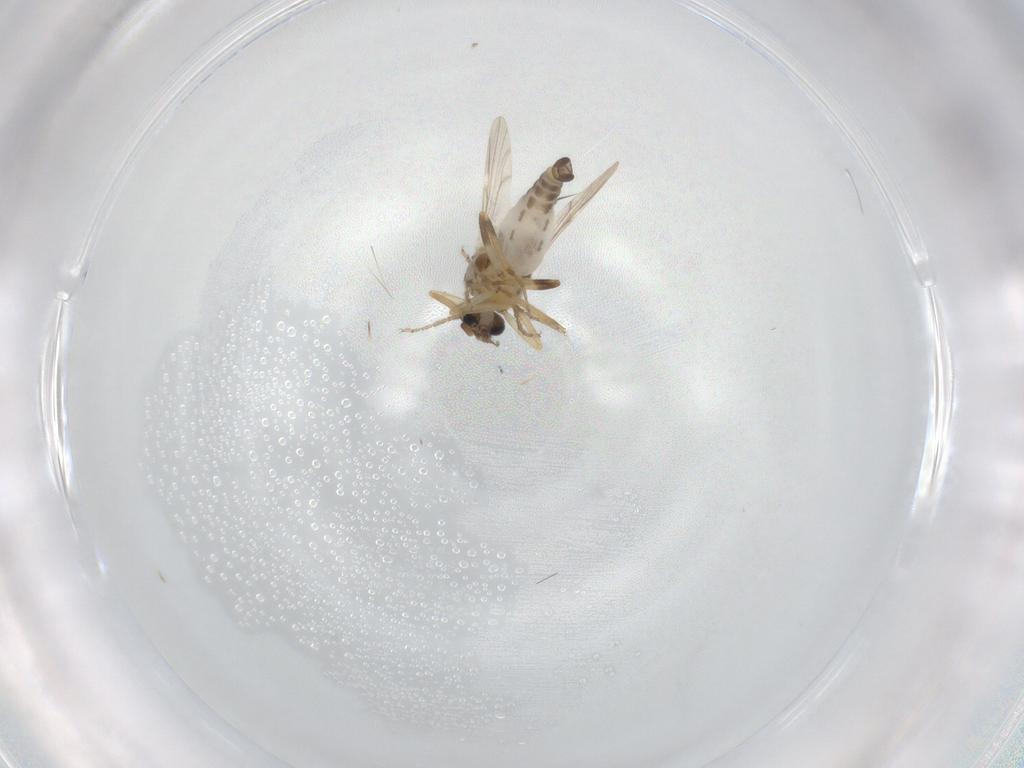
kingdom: Animalia
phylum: Arthropoda
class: Insecta
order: Diptera
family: Ceratopogonidae
